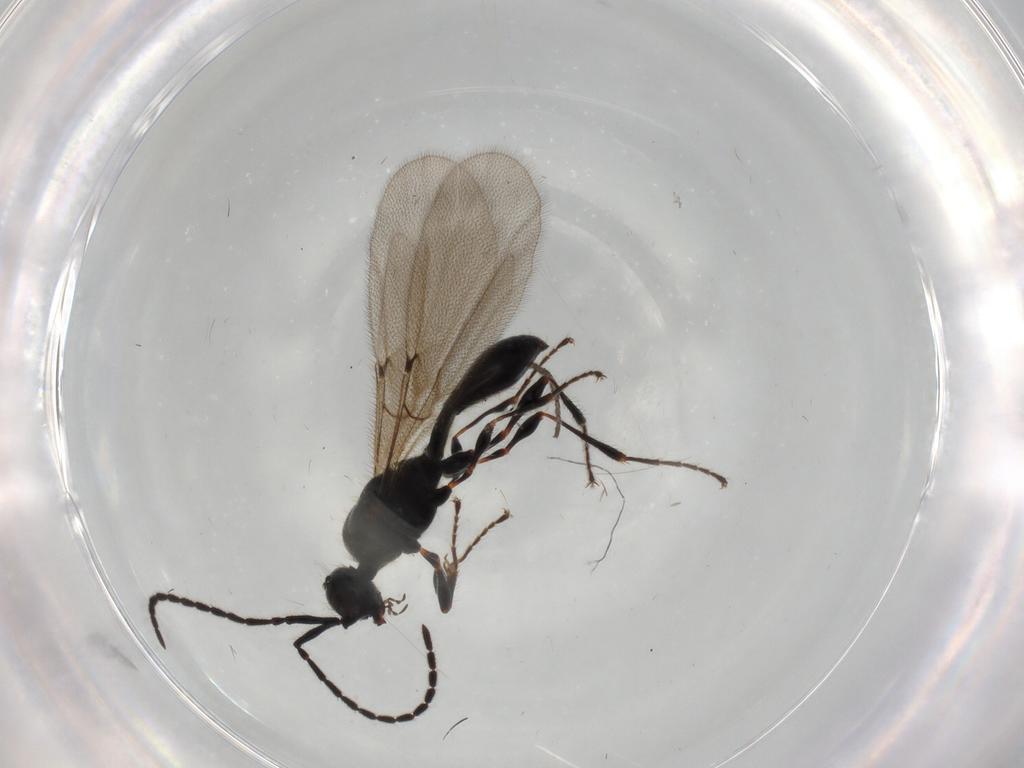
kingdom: Animalia
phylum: Arthropoda
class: Insecta
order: Hymenoptera
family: Diapriidae
